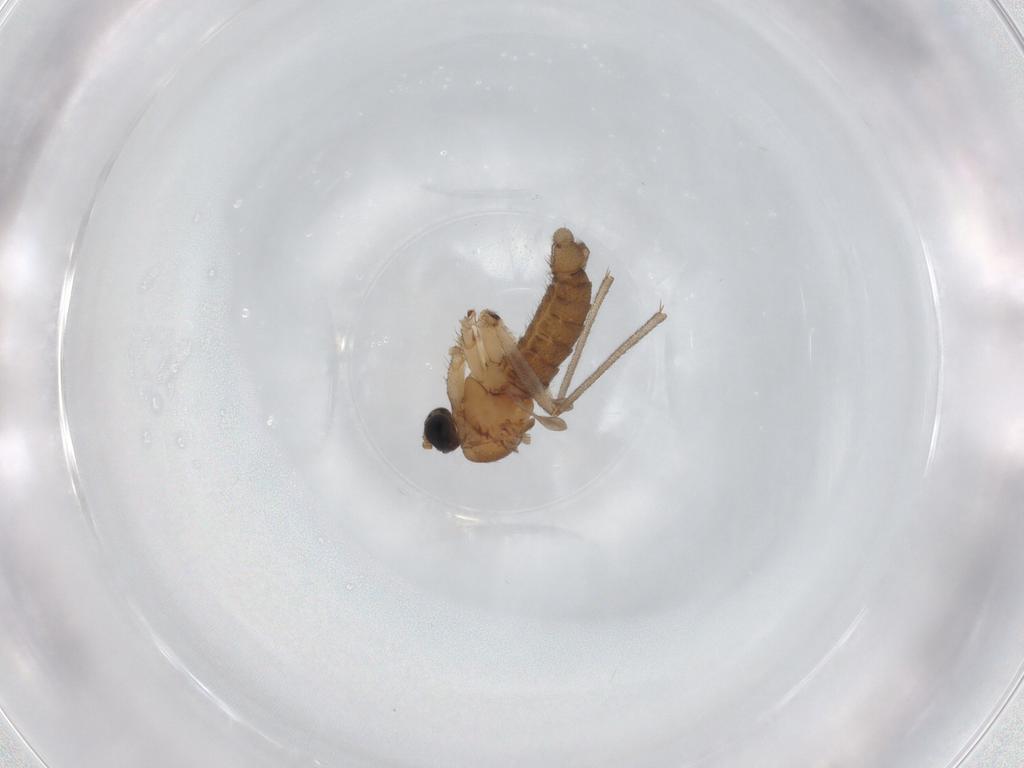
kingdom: Animalia
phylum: Arthropoda
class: Insecta
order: Diptera
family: Sciaridae
